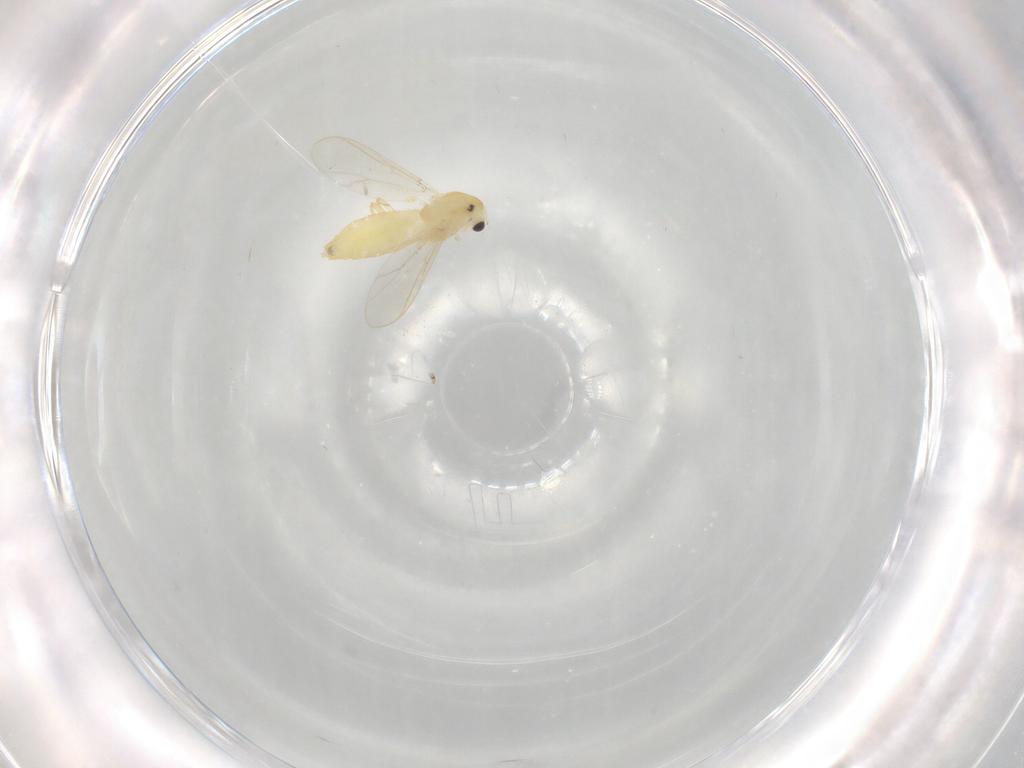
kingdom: Animalia
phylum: Arthropoda
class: Insecta
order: Diptera
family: Chironomidae
